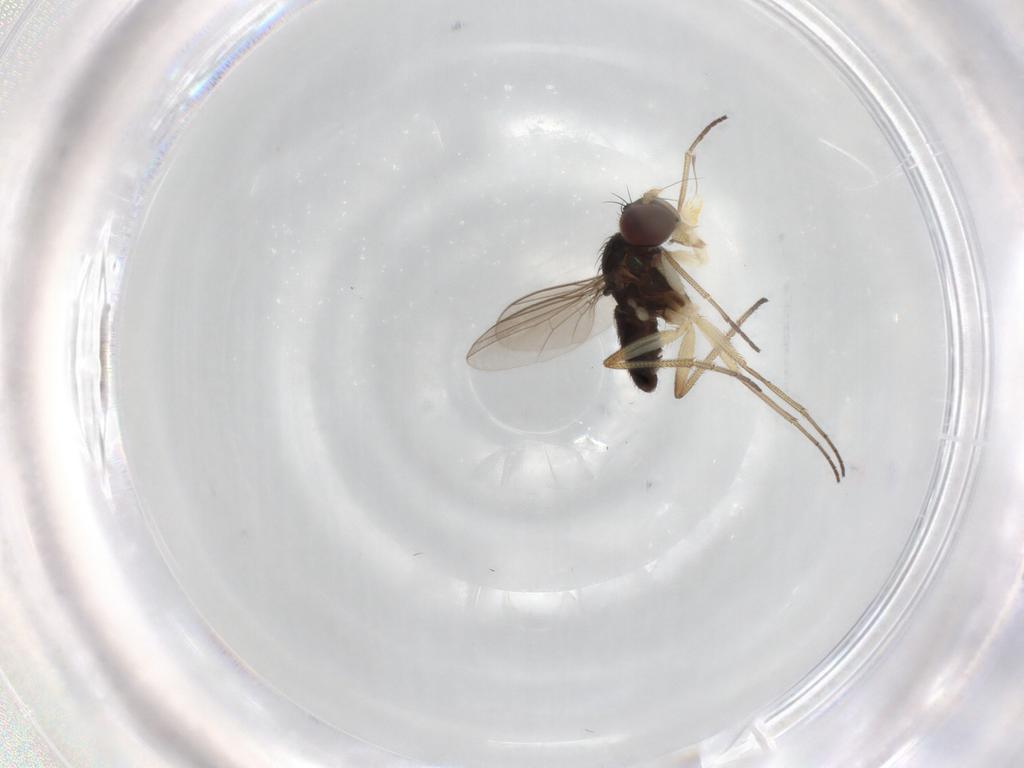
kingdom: Animalia
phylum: Arthropoda
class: Insecta
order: Diptera
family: Dolichopodidae
